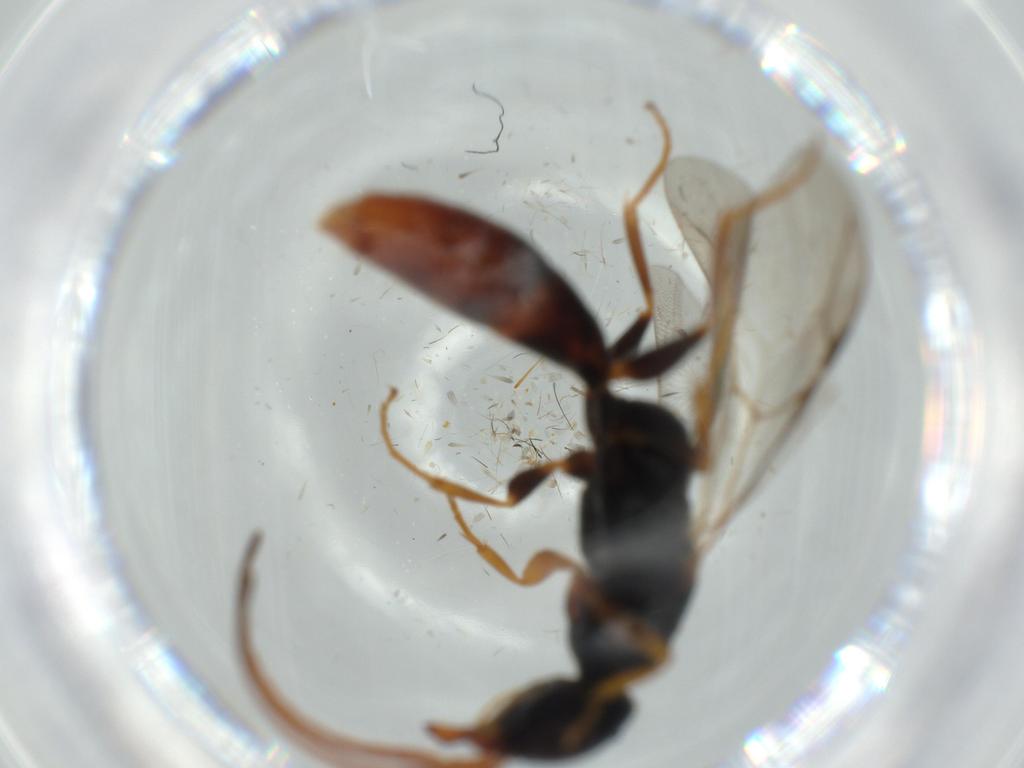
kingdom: Animalia
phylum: Arthropoda
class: Insecta
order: Hymenoptera
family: Bethylidae
